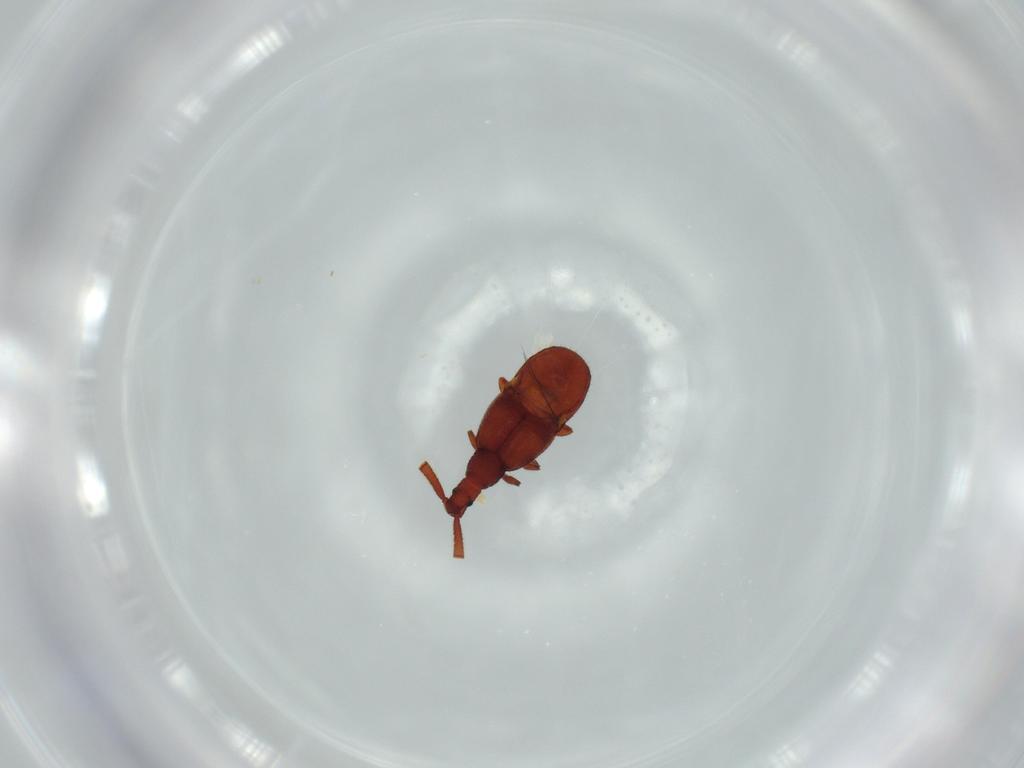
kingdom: Animalia
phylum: Arthropoda
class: Insecta
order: Coleoptera
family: Staphylinidae
